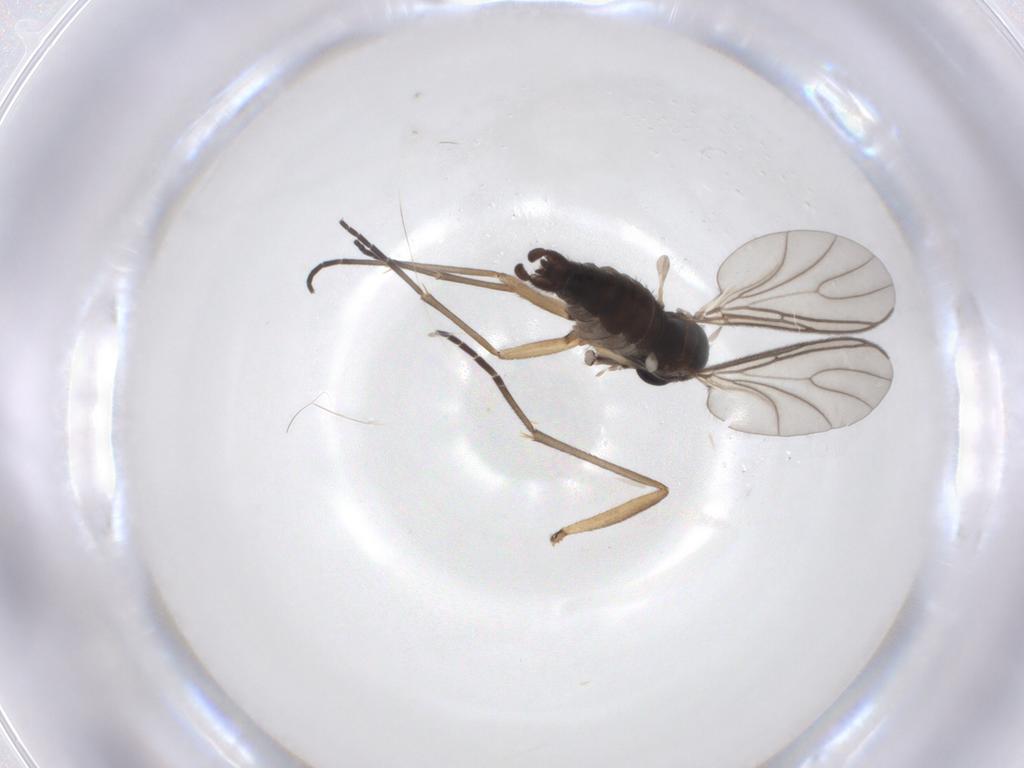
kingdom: Animalia
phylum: Arthropoda
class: Insecta
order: Diptera
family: Sciaridae
